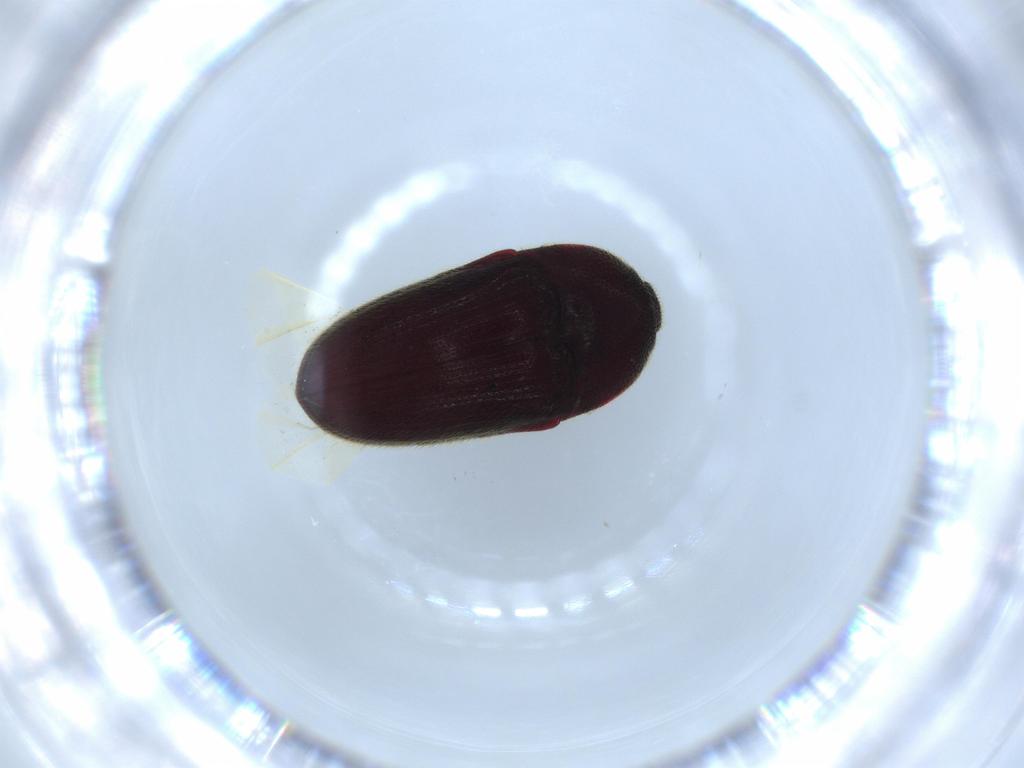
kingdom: Animalia
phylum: Arthropoda
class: Insecta
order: Coleoptera
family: Throscidae
